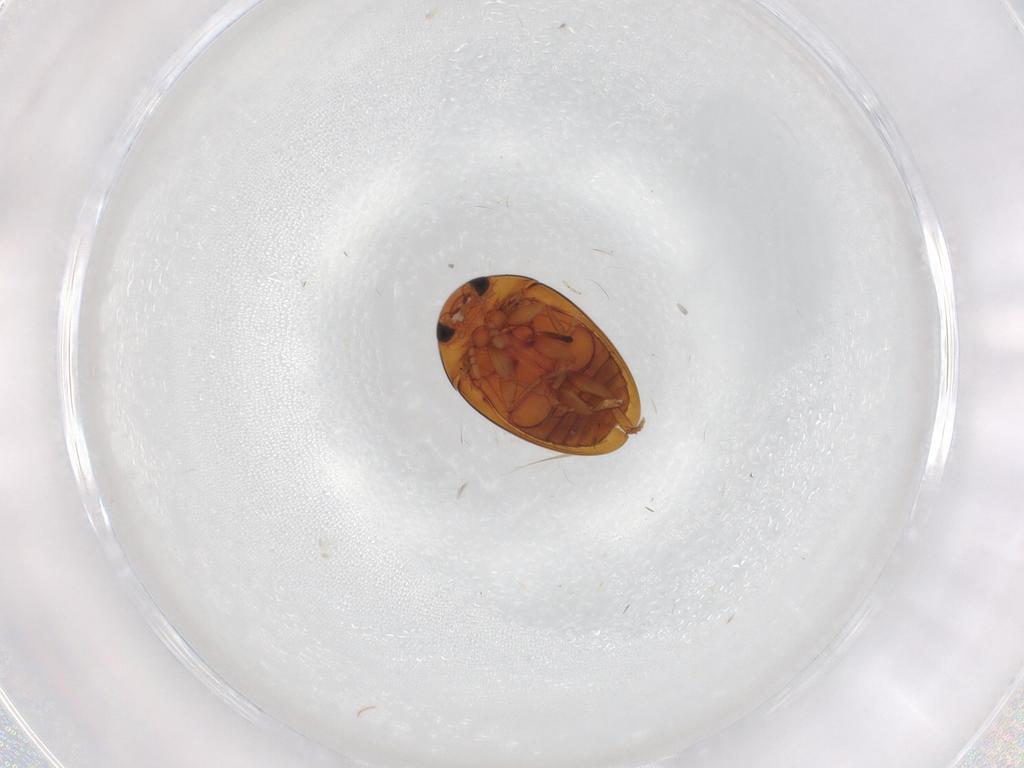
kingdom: Animalia
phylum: Arthropoda
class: Insecta
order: Coleoptera
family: Phalacridae
